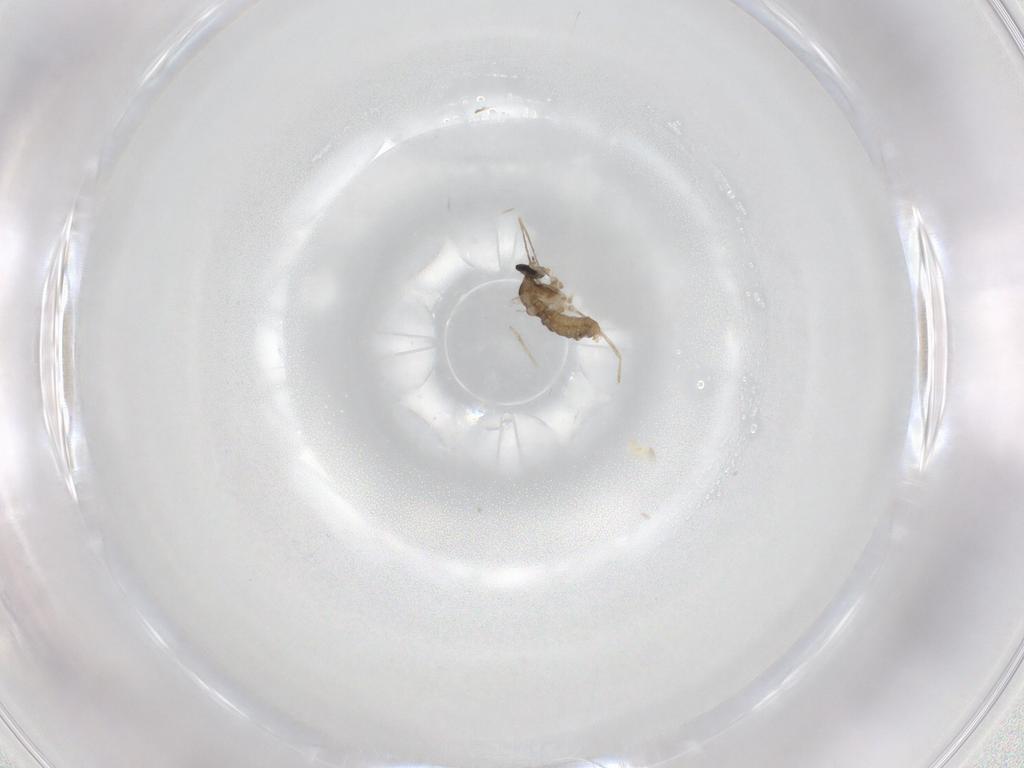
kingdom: Animalia
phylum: Arthropoda
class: Insecta
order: Diptera
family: Cecidomyiidae
